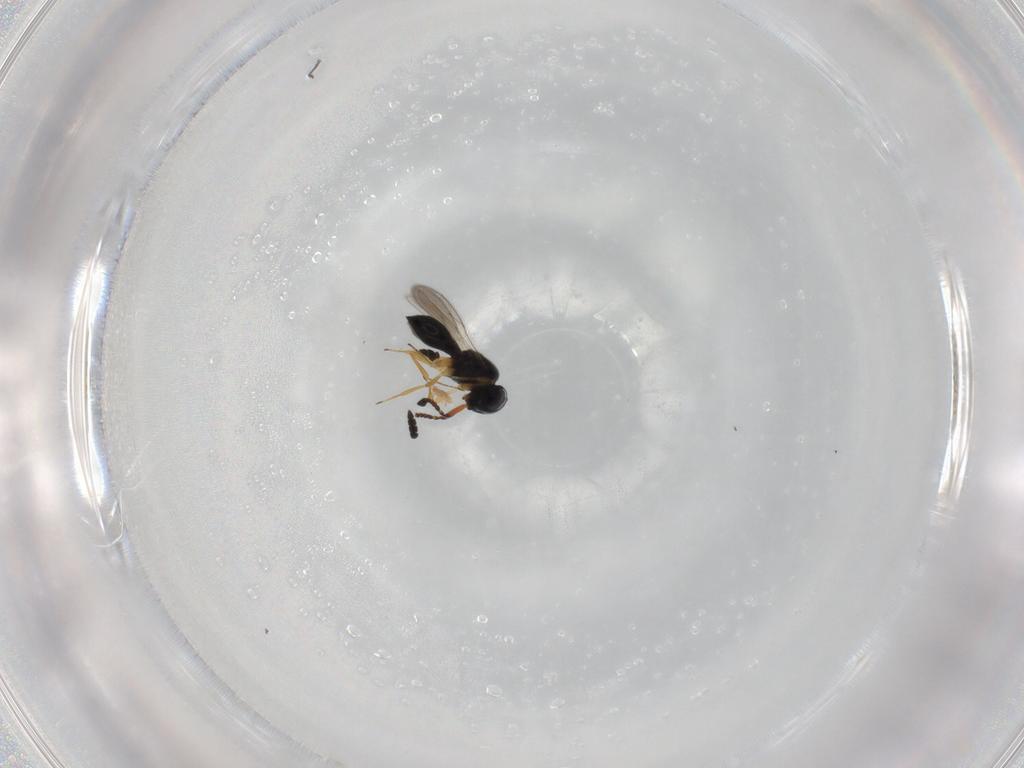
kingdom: Animalia
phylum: Arthropoda
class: Insecta
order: Hymenoptera
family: Scelionidae
